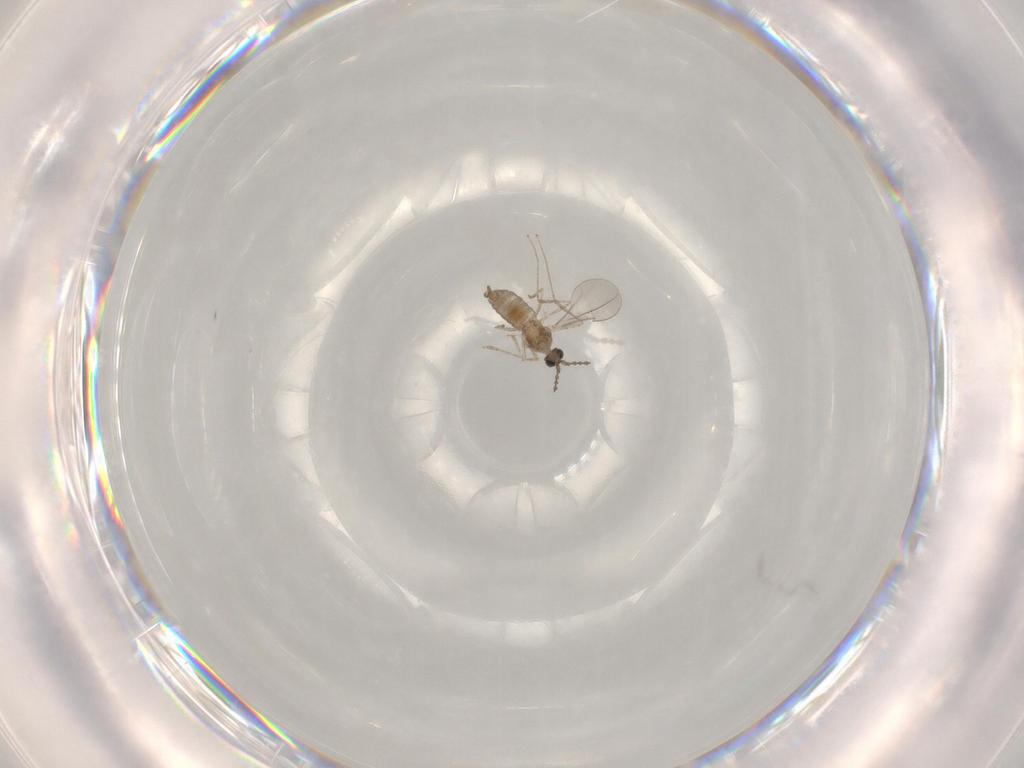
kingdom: Animalia
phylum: Arthropoda
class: Insecta
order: Diptera
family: Cecidomyiidae
